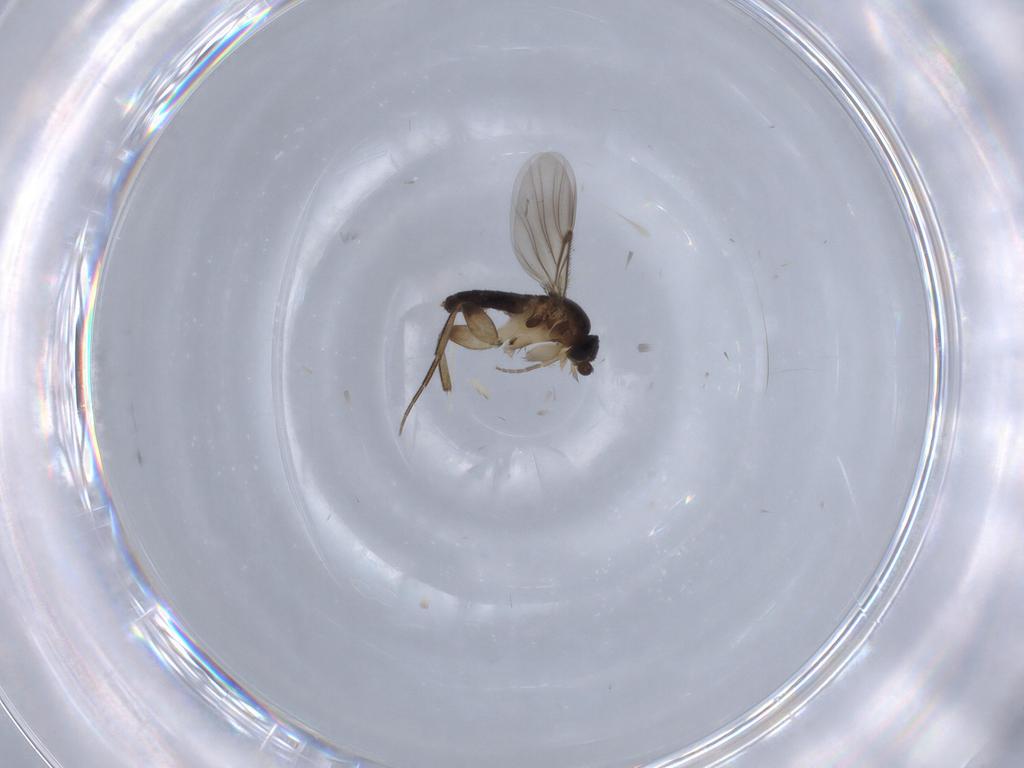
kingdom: Animalia
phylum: Arthropoda
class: Insecta
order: Diptera
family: Phoridae
